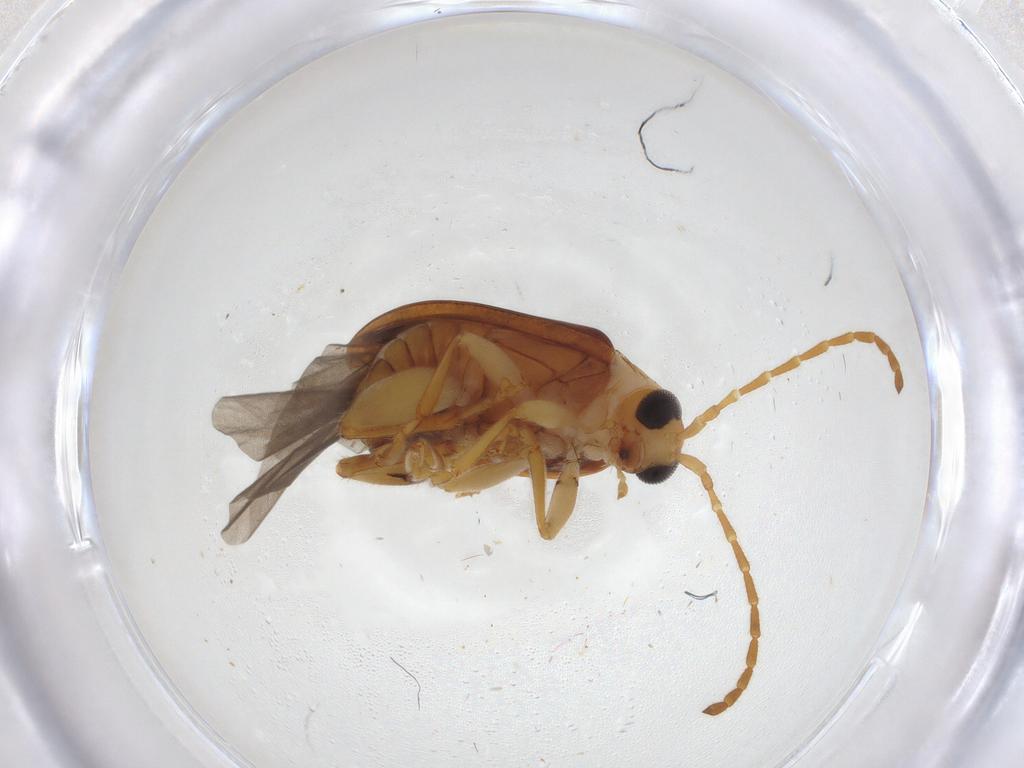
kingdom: Animalia
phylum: Arthropoda
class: Insecta
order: Coleoptera
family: Chrysomelidae
